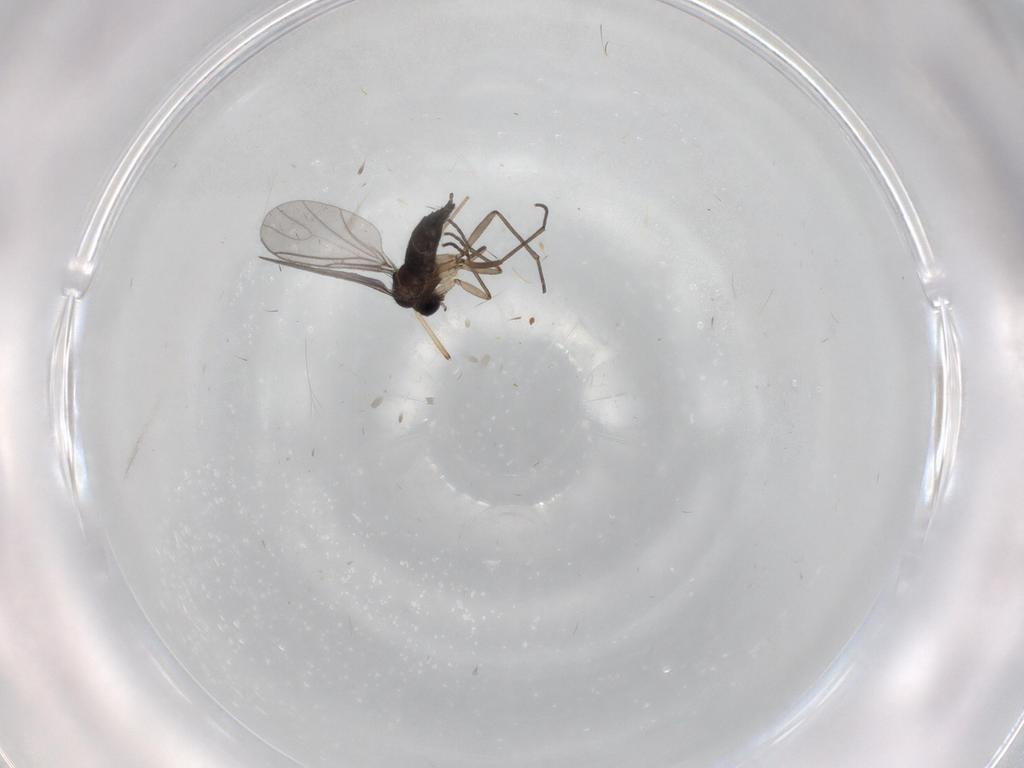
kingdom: Animalia
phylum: Arthropoda
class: Insecta
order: Diptera
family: Sciaridae
